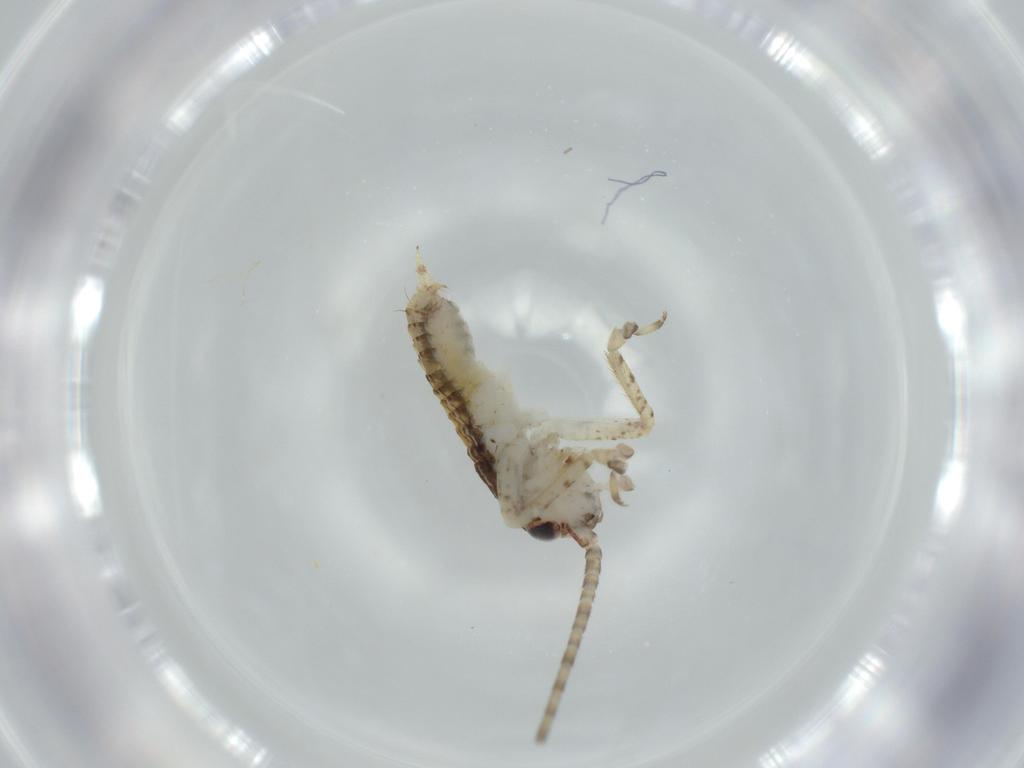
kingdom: Animalia
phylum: Arthropoda
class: Insecta
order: Orthoptera
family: Gryllidae
